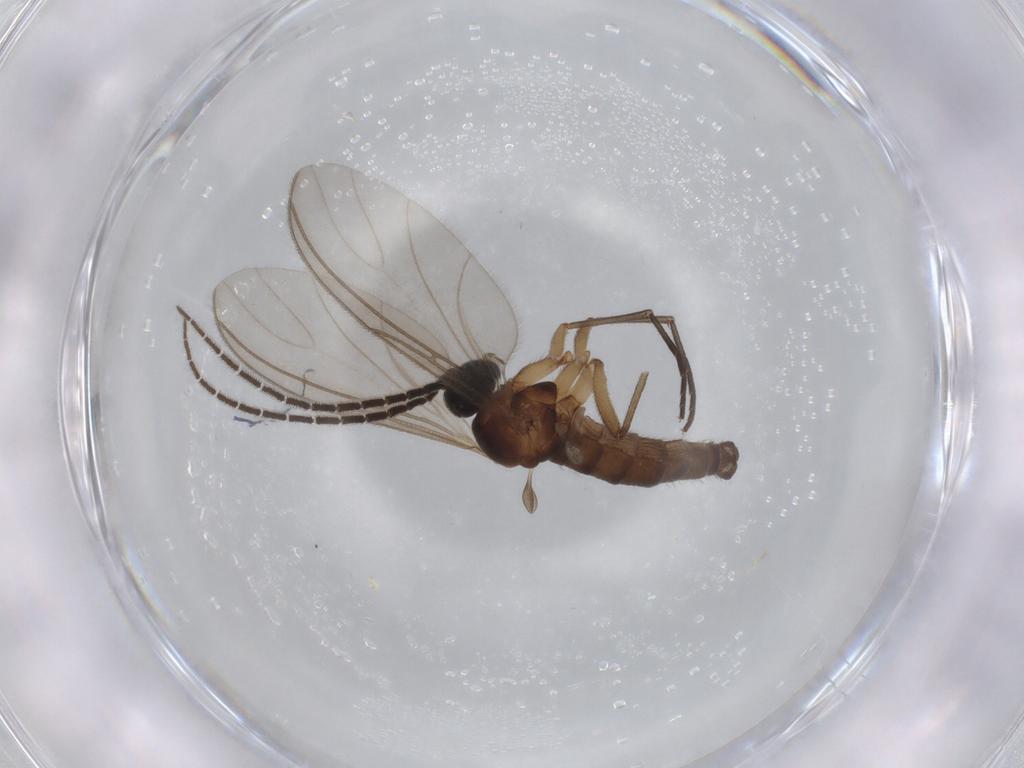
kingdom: Animalia
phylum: Arthropoda
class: Insecta
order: Diptera
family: Sciaridae
